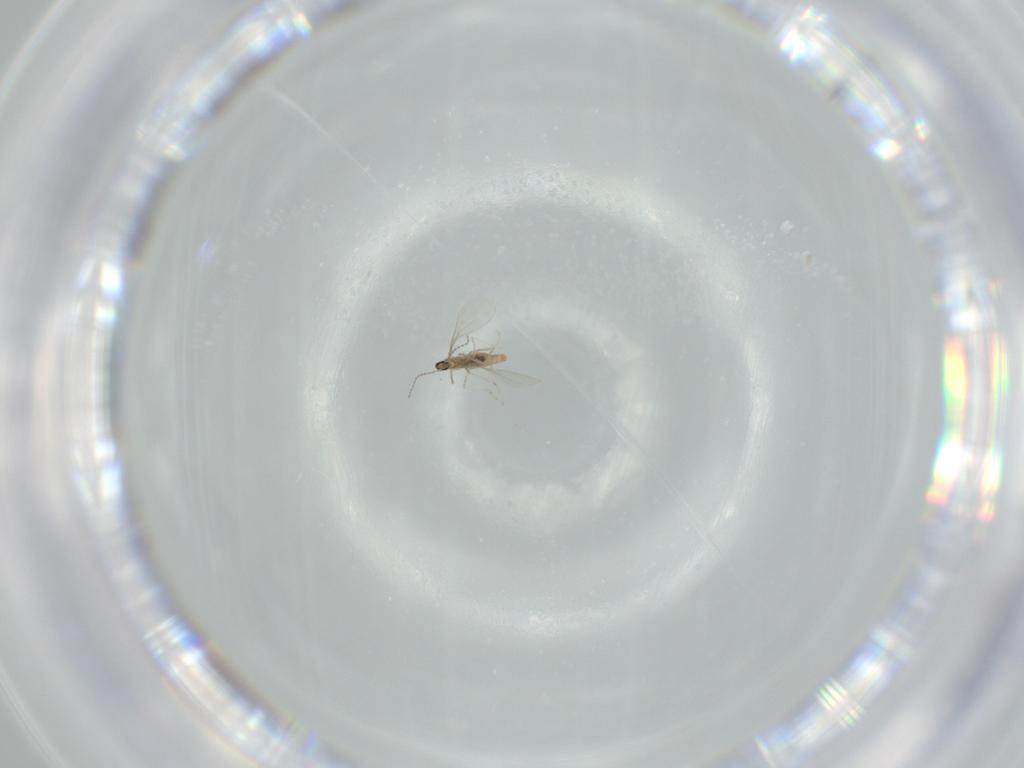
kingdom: Animalia
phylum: Arthropoda
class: Insecta
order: Diptera
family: Cecidomyiidae
